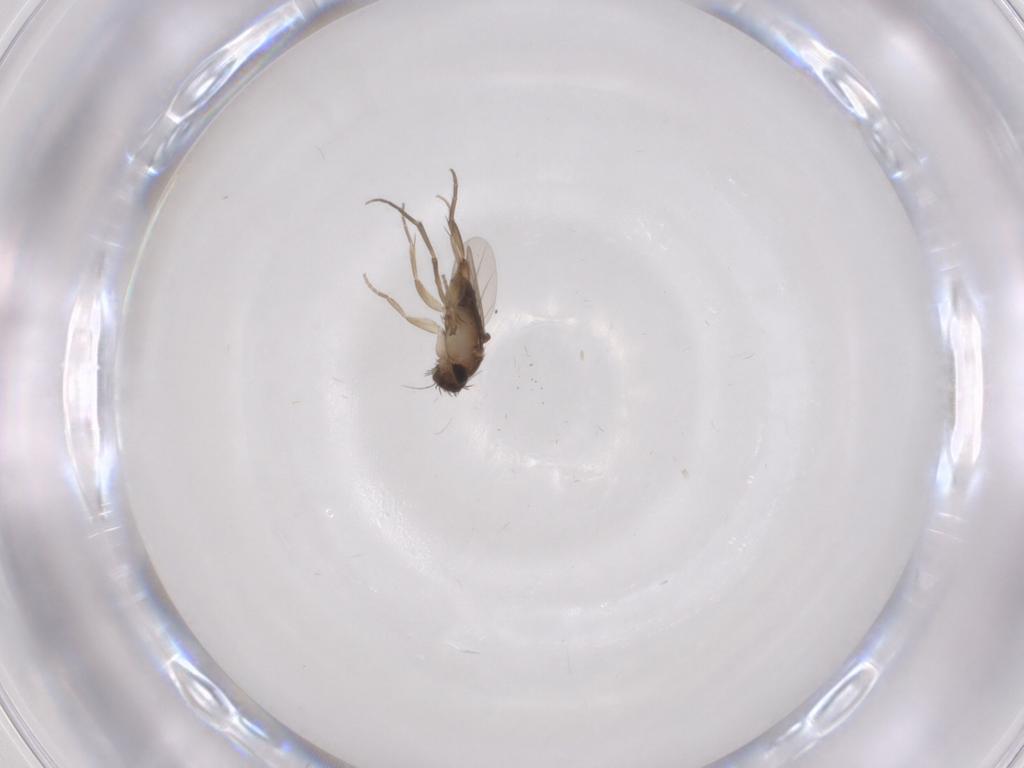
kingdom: Animalia
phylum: Arthropoda
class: Insecta
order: Diptera
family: Phoridae
